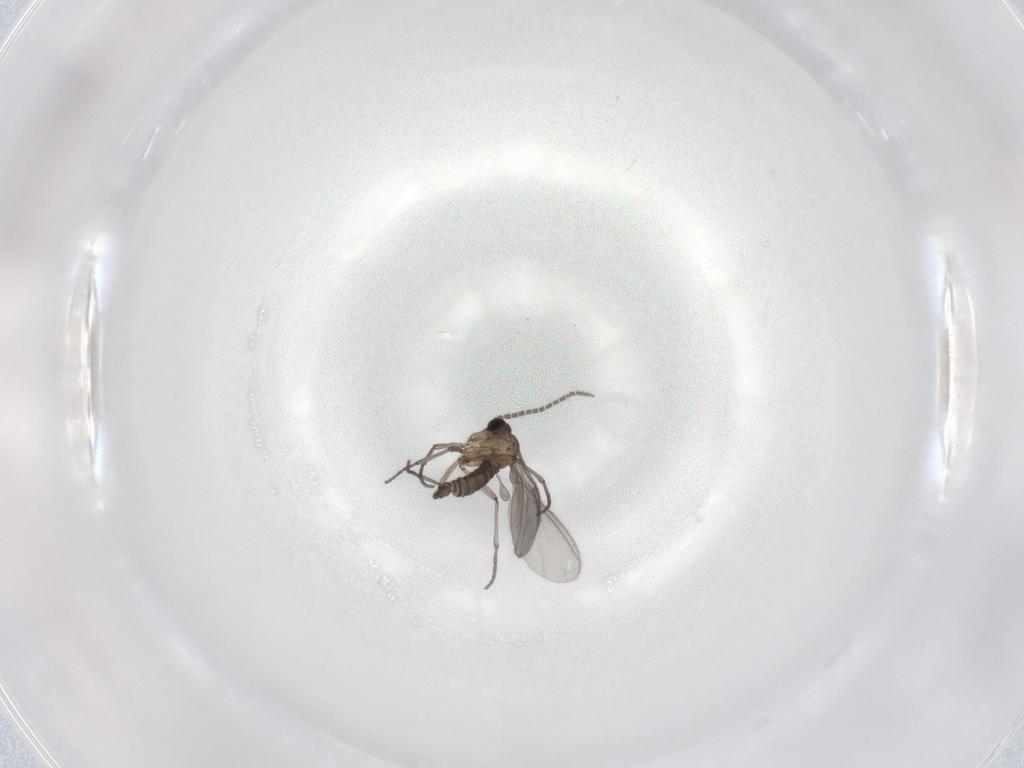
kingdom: Animalia
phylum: Arthropoda
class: Insecta
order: Diptera
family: Sciaridae
